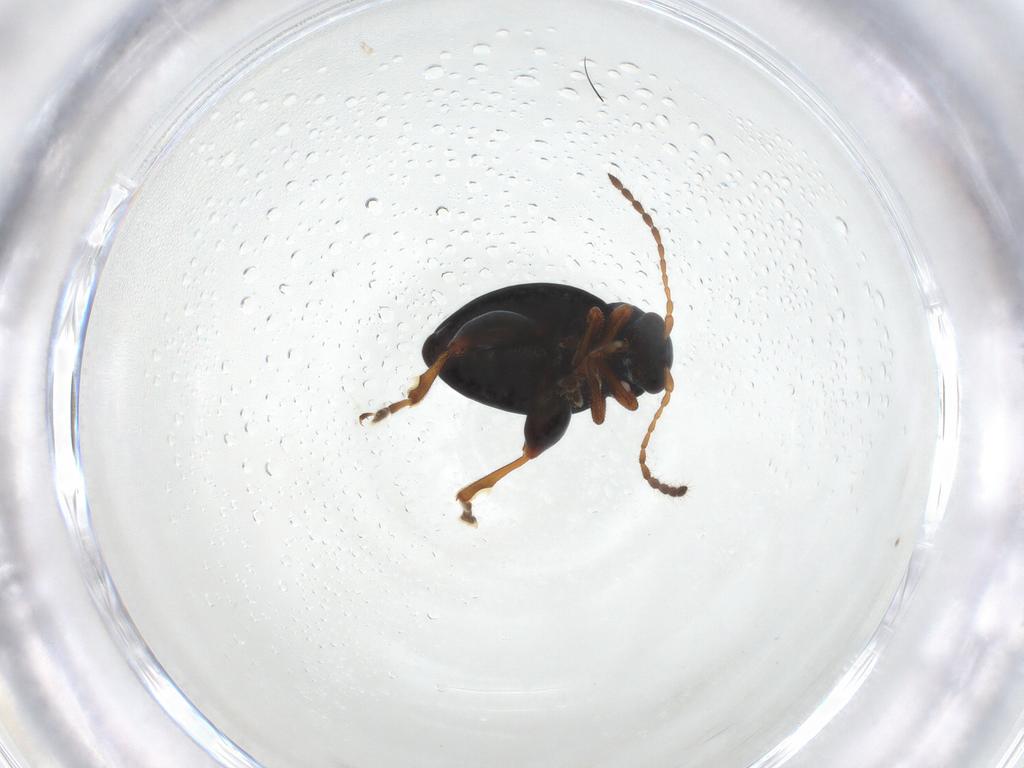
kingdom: Animalia
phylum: Arthropoda
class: Insecta
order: Coleoptera
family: Chrysomelidae
